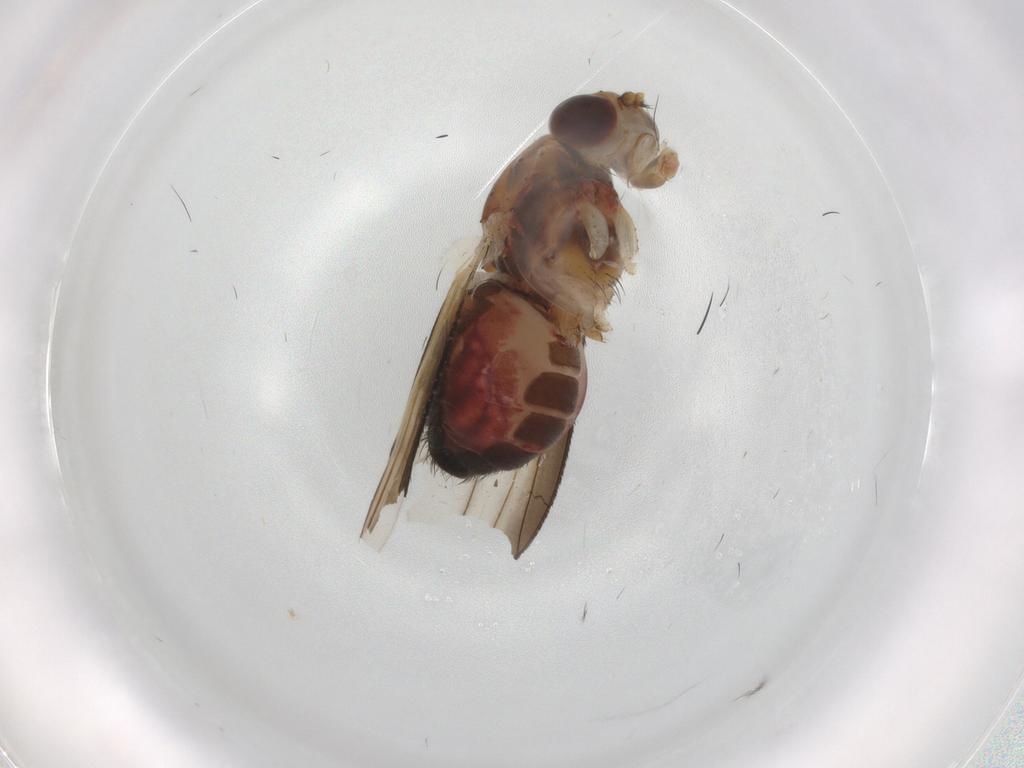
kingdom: Animalia
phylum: Arthropoda
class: Insecta
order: Diptera
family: Heleomyzidae
